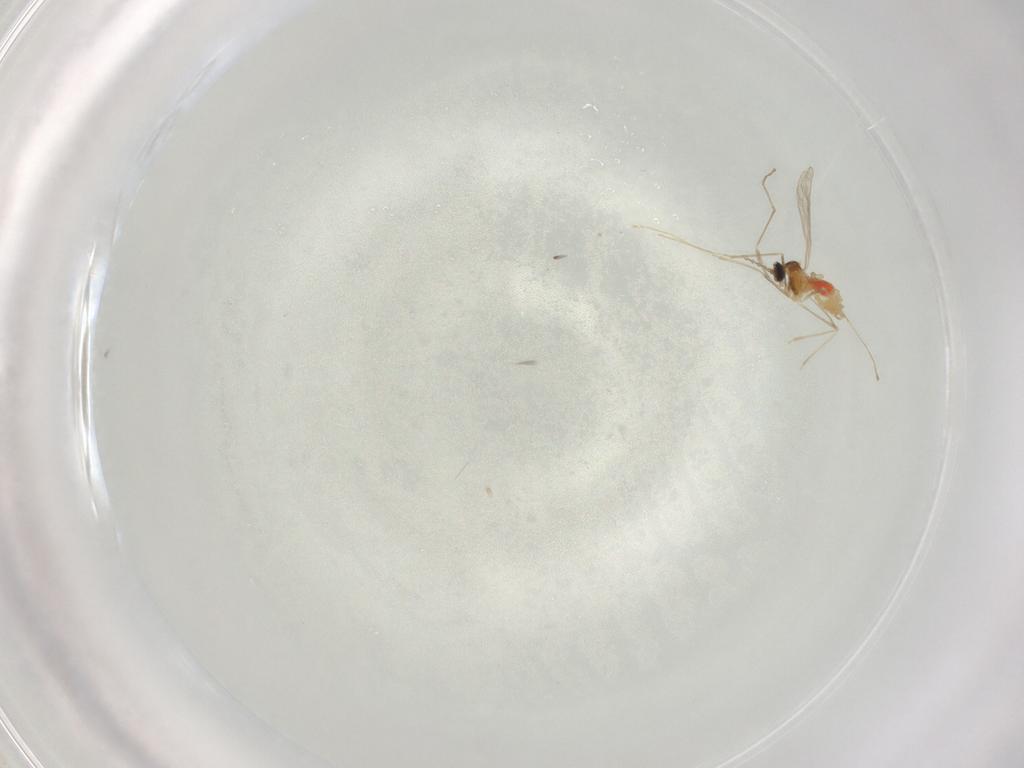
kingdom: Animalia
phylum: Arthropoda
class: Insecta
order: Diptera
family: Cecidomyiidae
